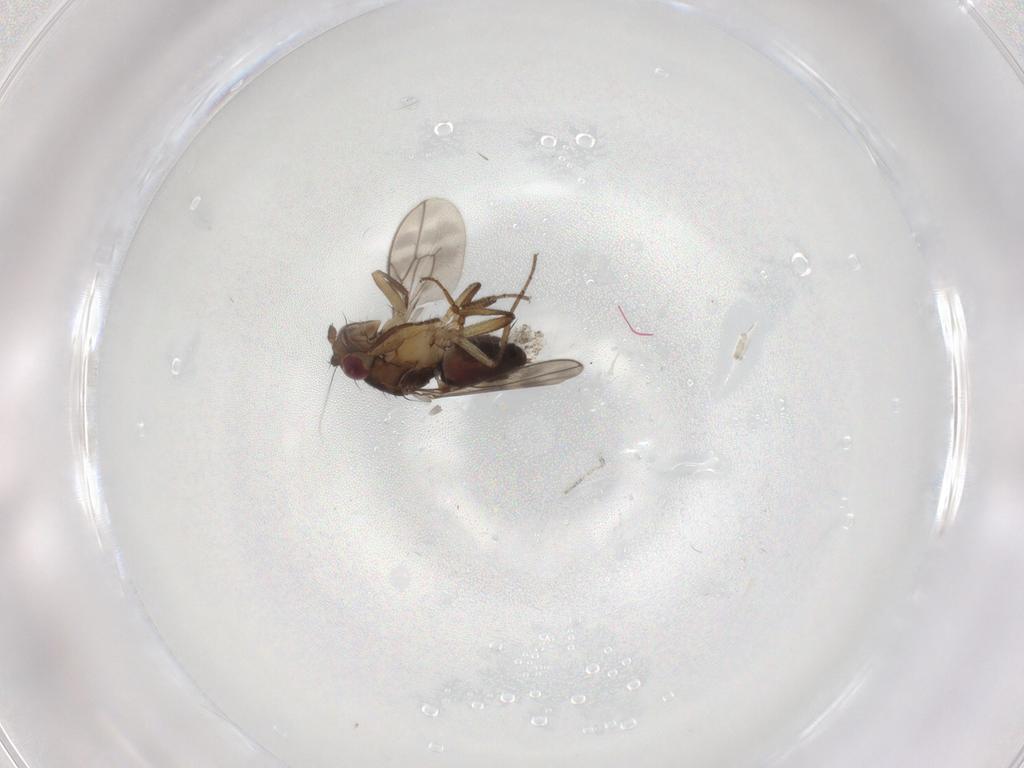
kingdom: Animalia
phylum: Arthropoda
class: Insecta
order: Diptera
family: Sphaeroceridae
